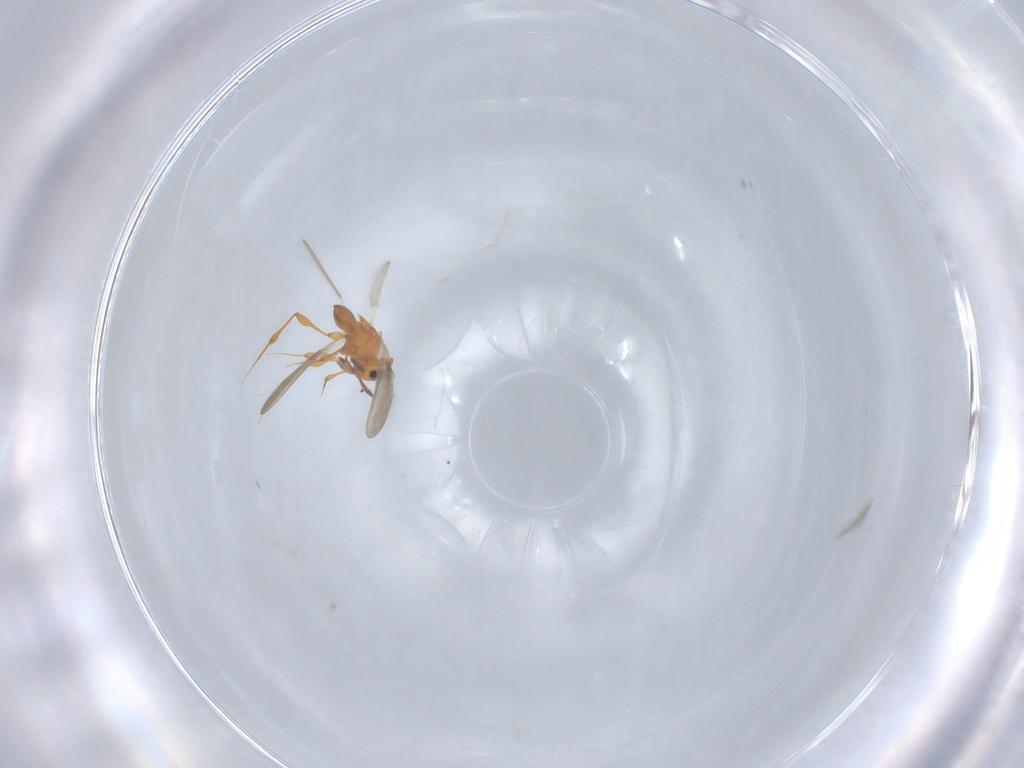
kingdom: Animalia
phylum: Arthropoda
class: Insecta
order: Hymenoptera
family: Platygastridae
